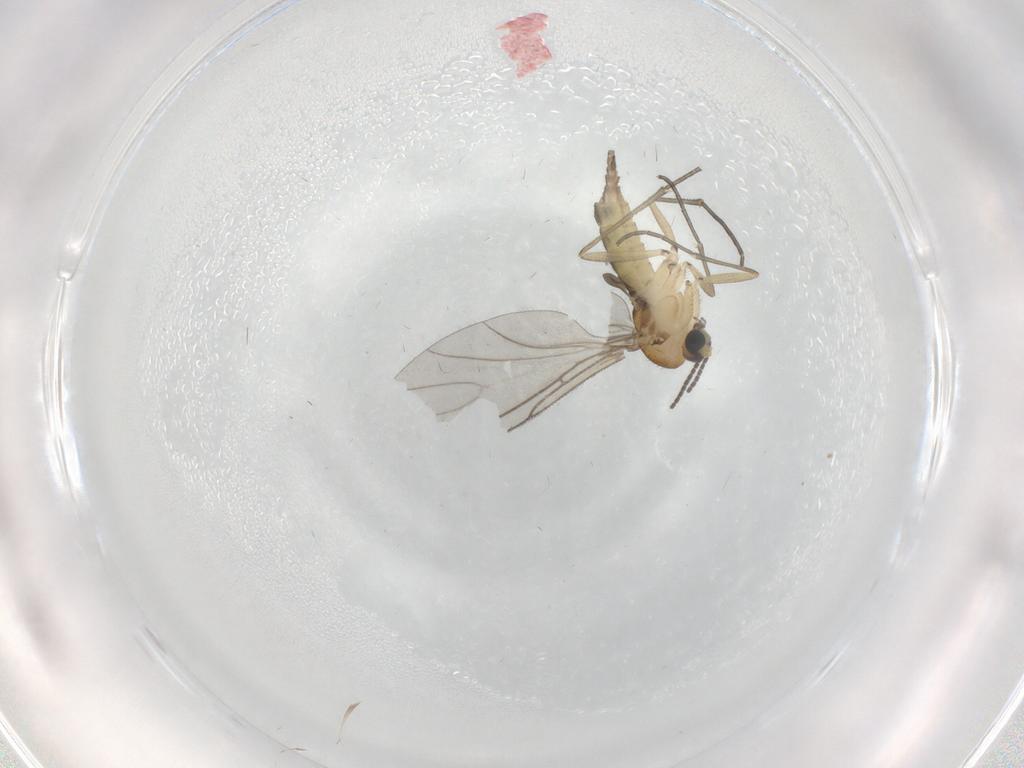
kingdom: Animalia
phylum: Arthropoda
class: Insecta
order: Diptera
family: Sciaridae
